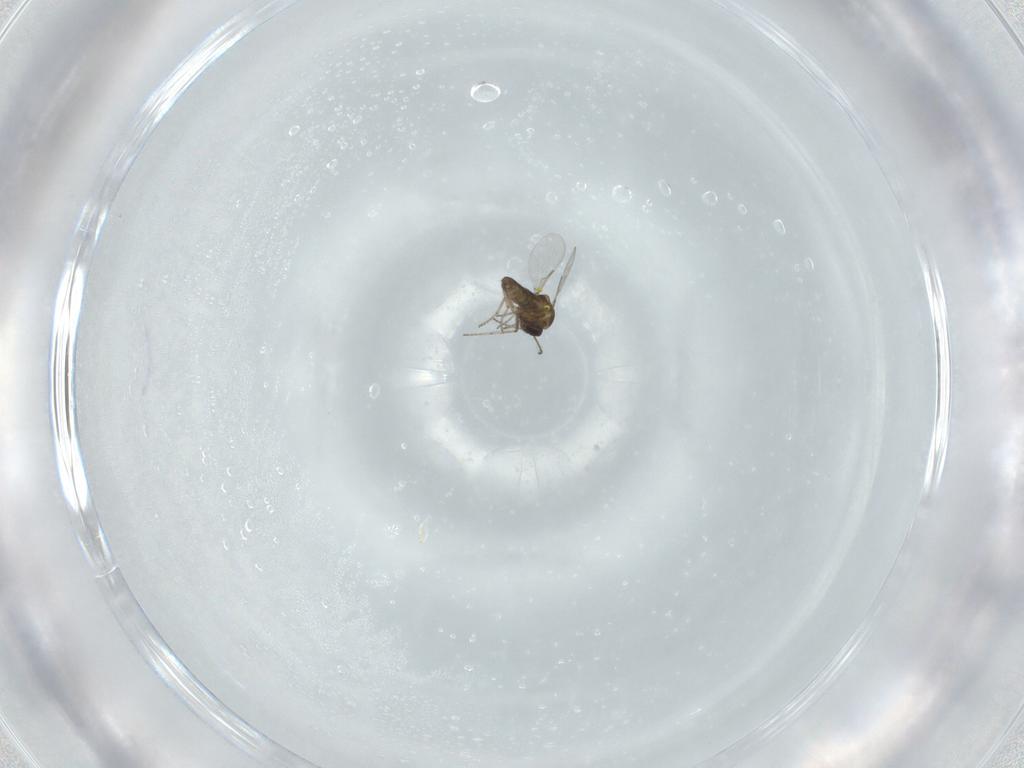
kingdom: Animalia
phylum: Arthropoda
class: Insecta
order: Diptera
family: Ceratopogonidae
